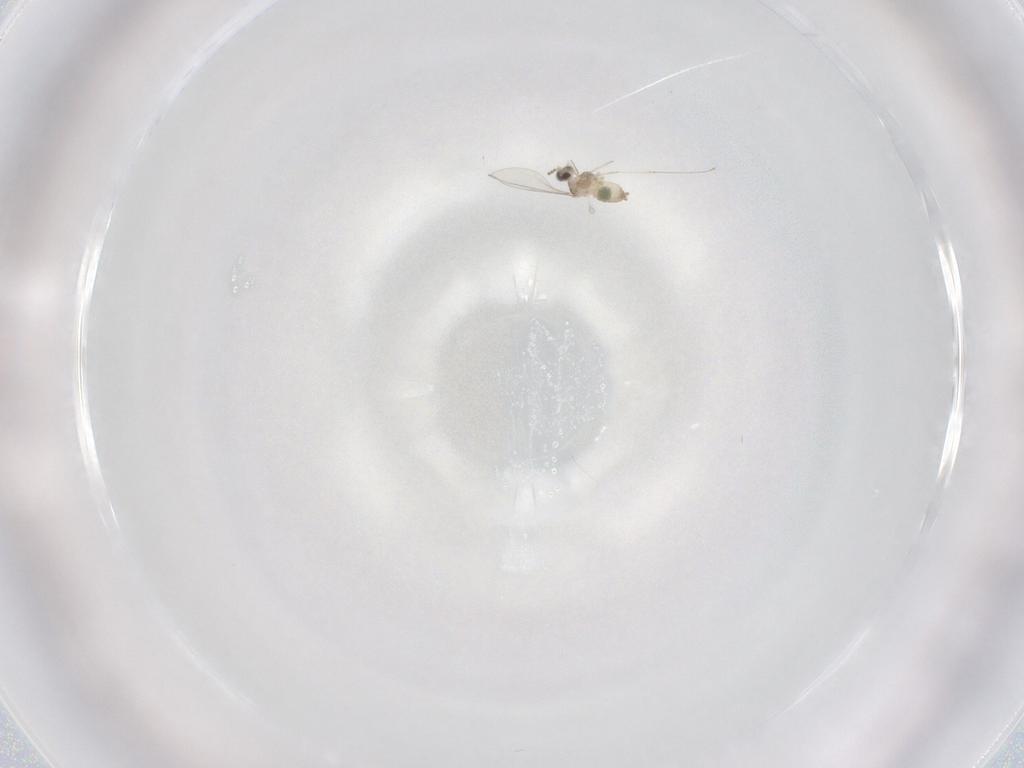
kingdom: Animalia
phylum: Arthropoda
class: Insecta
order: Diptera
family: Cecidomyiidae
